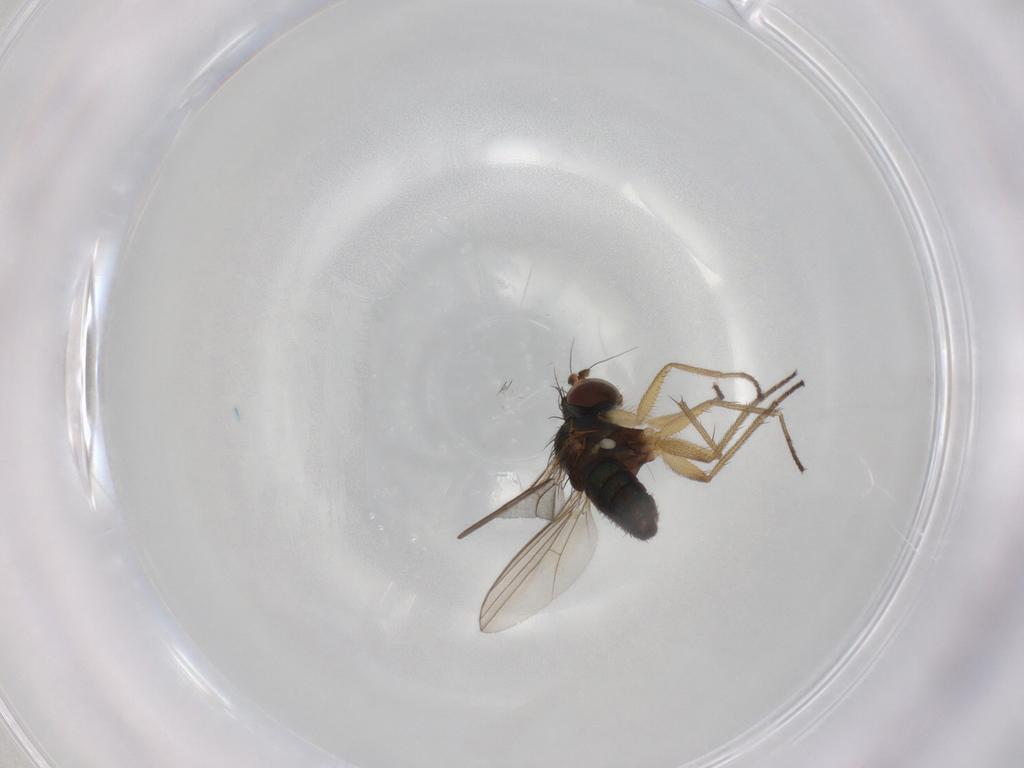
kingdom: Animalia
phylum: Arthropoda
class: Insecta
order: Diptera
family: Dolichopodidae
